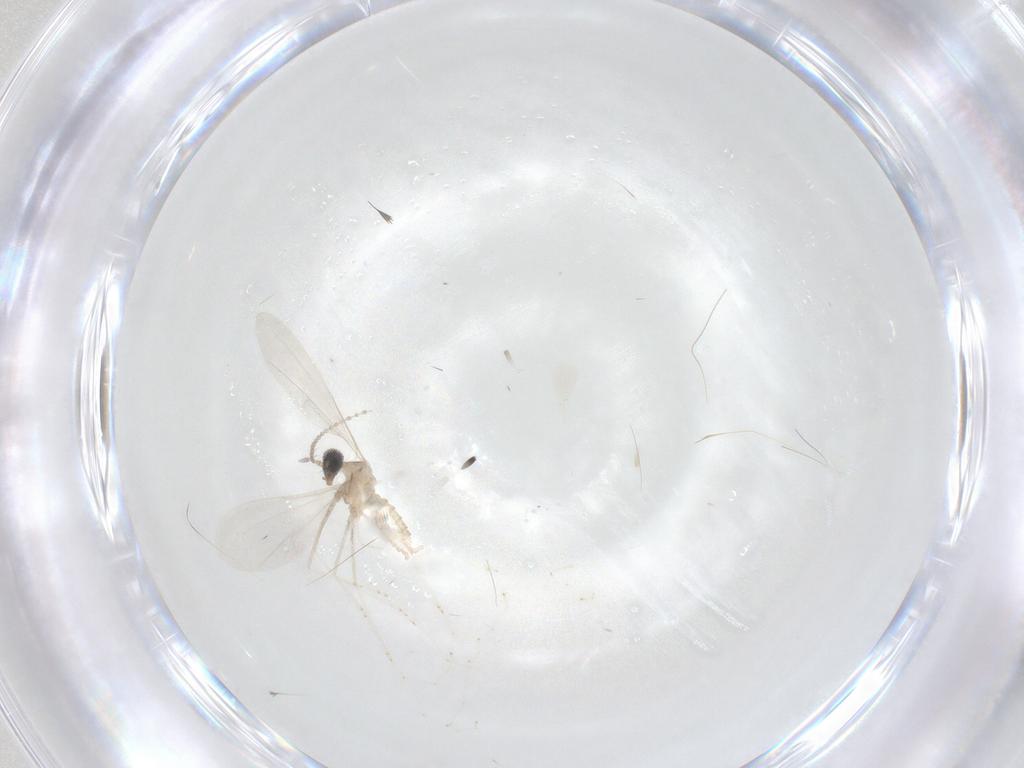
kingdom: Animalia
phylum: Arthropoda
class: Insecta
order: Diptera
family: Cecidomyiidae
